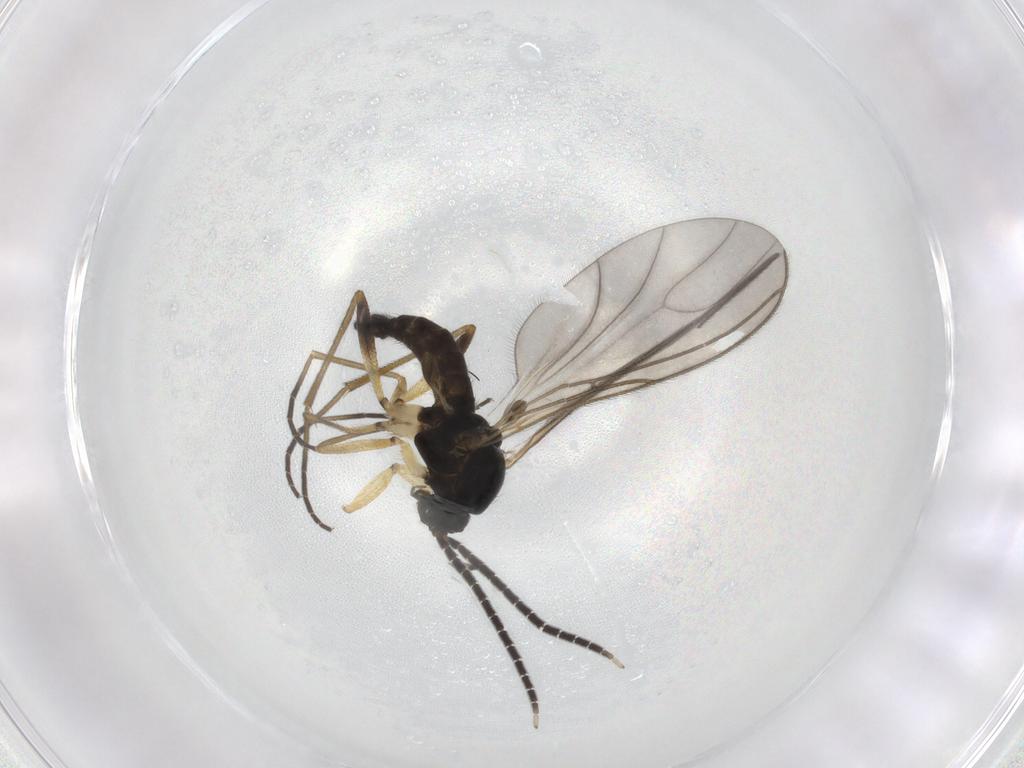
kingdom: Animalia
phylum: Arthropoda
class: Insecta
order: Diptera
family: Sciaridae
